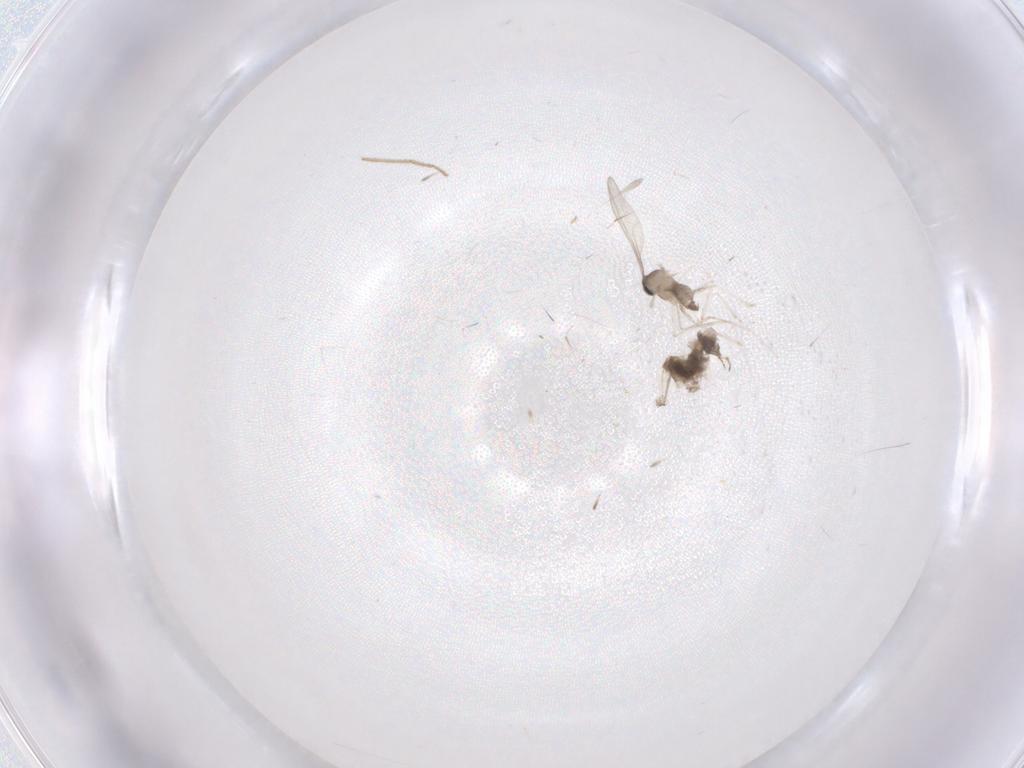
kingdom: Animalia
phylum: Arthropoda
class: Insecta
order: Diptera
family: Cecidomyiidae
